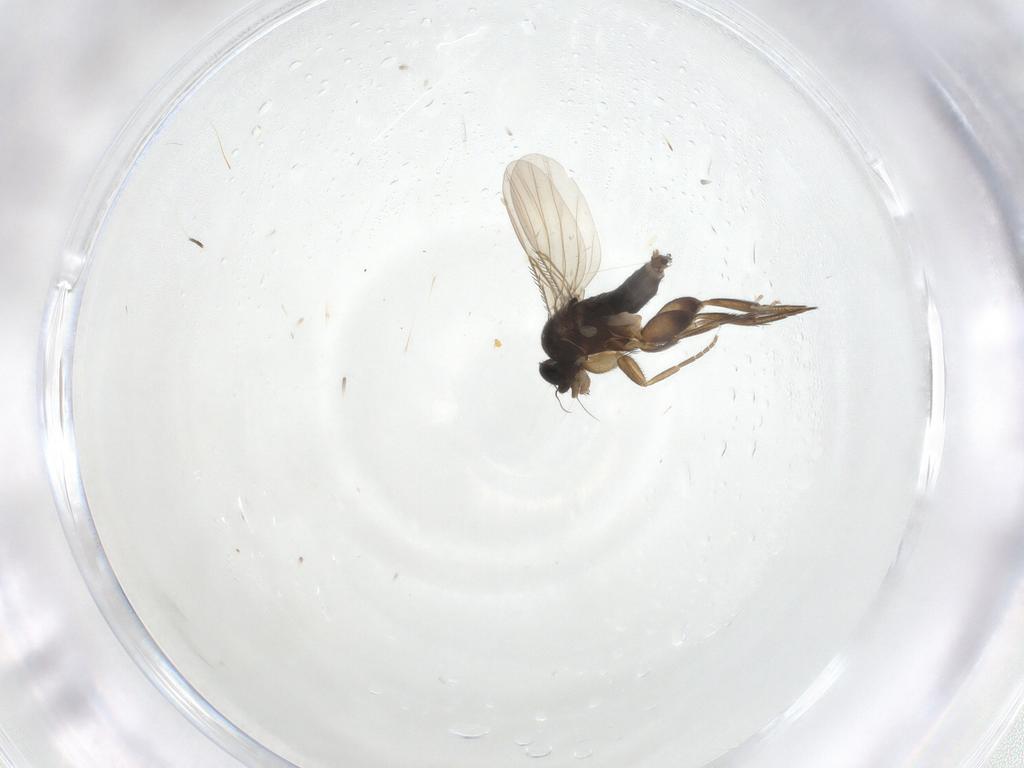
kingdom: Animalia
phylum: Arthropoda
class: Insecta
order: Diptera
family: Phoridae
